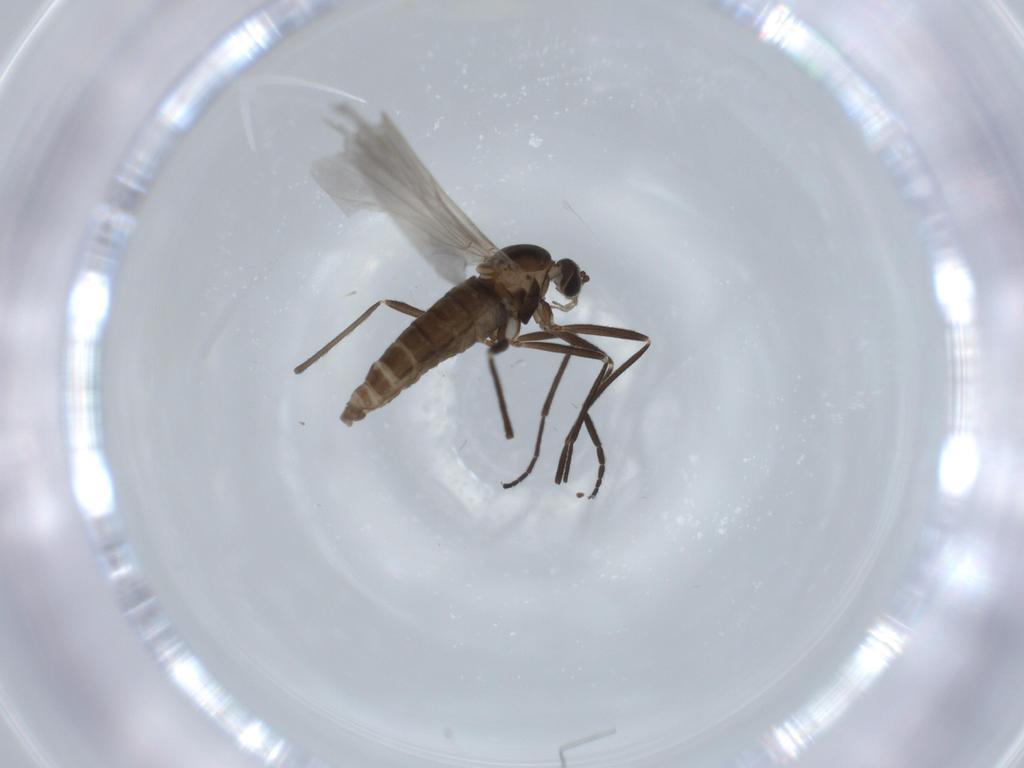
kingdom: Animalia
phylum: Arthropoda
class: Insecta
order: Diptera
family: Cecidomyiidae
